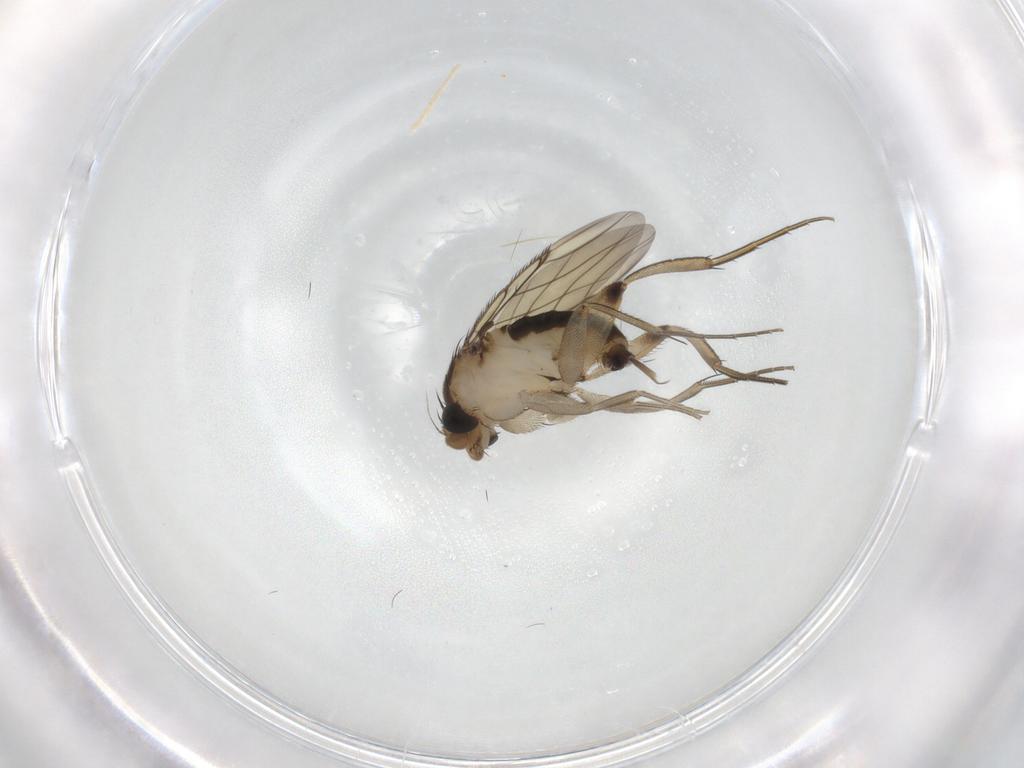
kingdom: Animalia
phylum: Arthropoda
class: Insecta
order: Diptera
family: Phoridae
